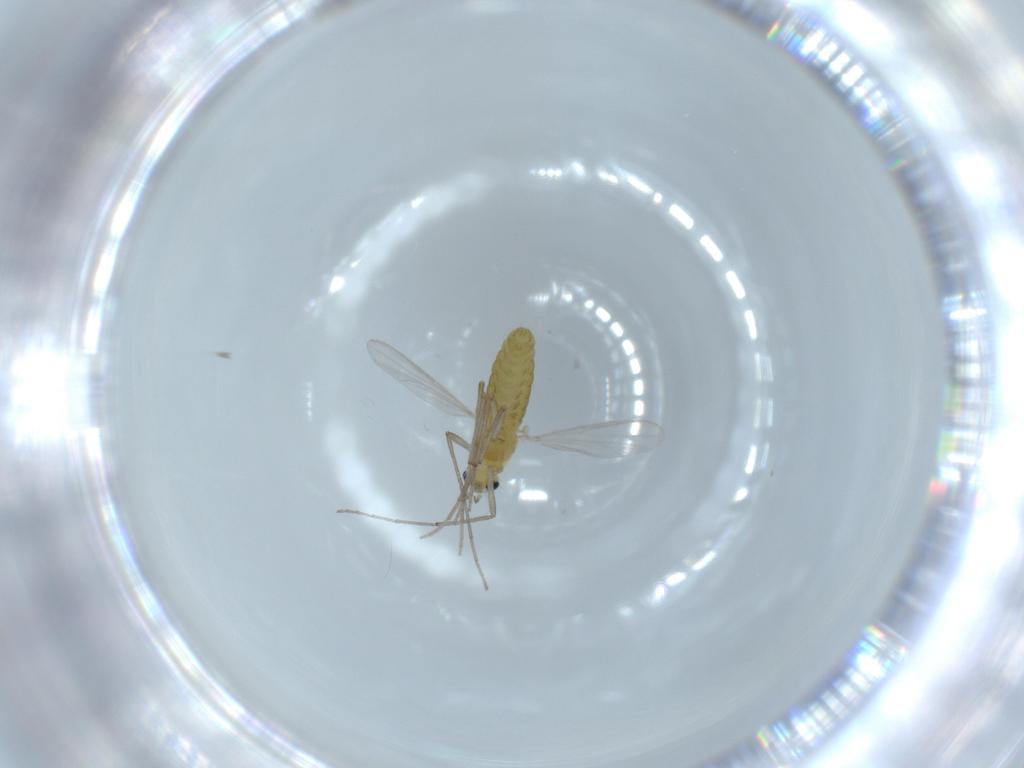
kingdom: Animalia
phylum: Arthropoda
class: Insecta
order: Diptera
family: Chironomidae
